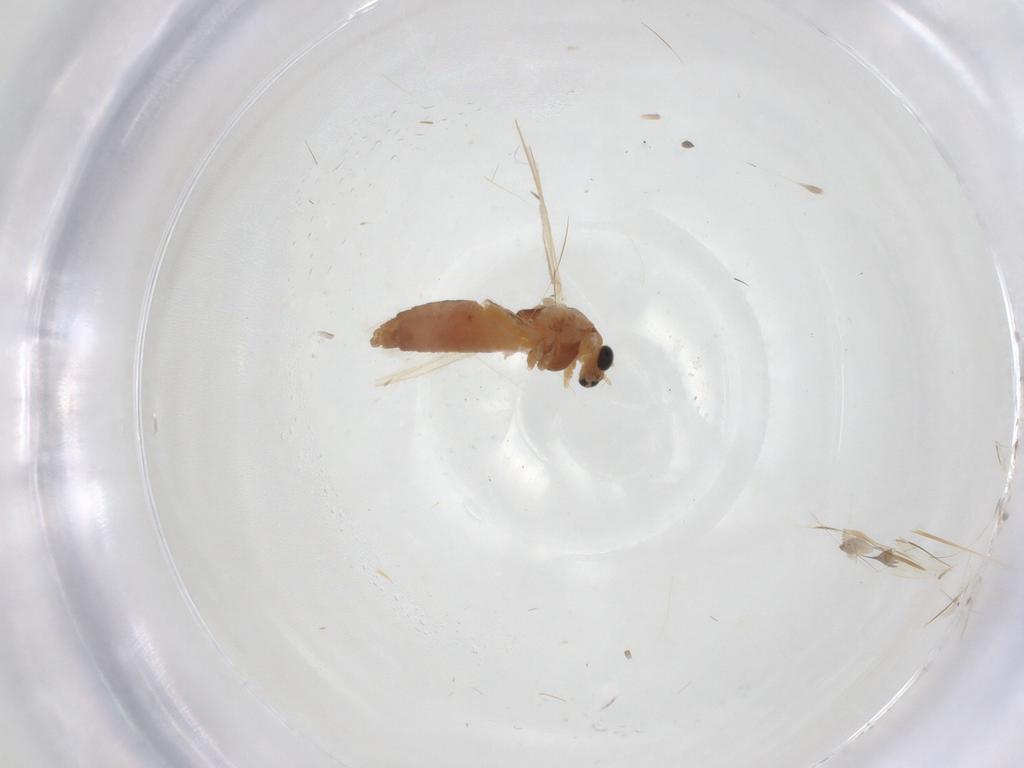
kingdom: Animalia
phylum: Arthropoda
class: Insecta
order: Diptera
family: Chironomidae
